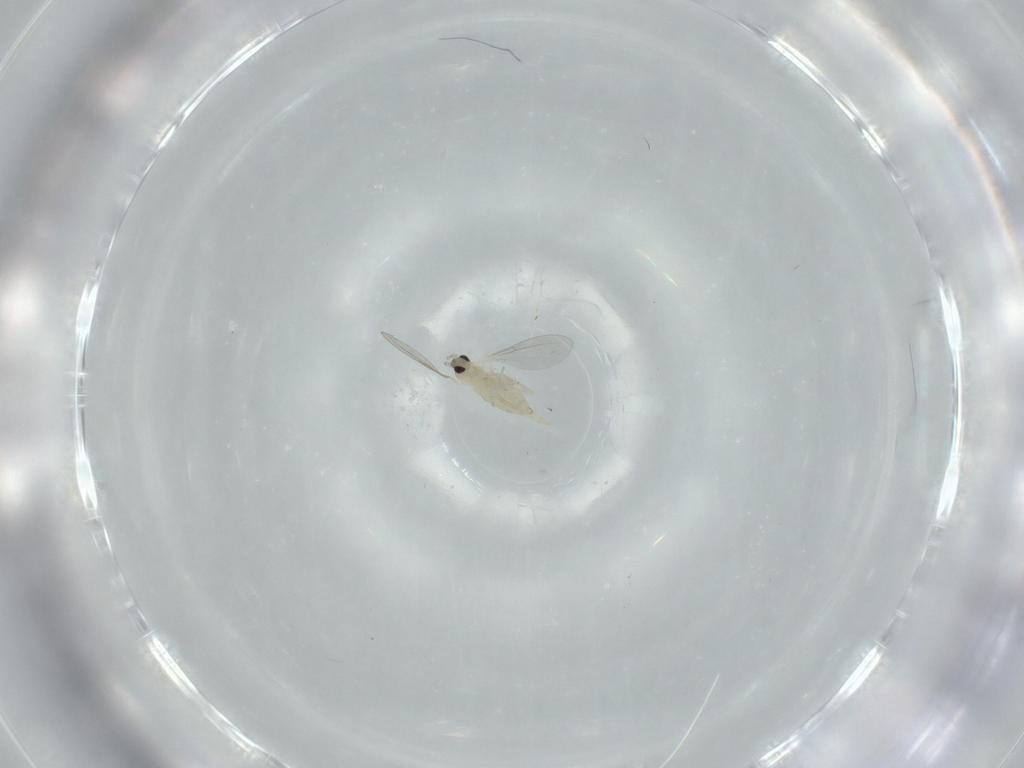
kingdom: Animalia
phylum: Arthropoda
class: Insecta
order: Diptera
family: Cecidomyiidae
